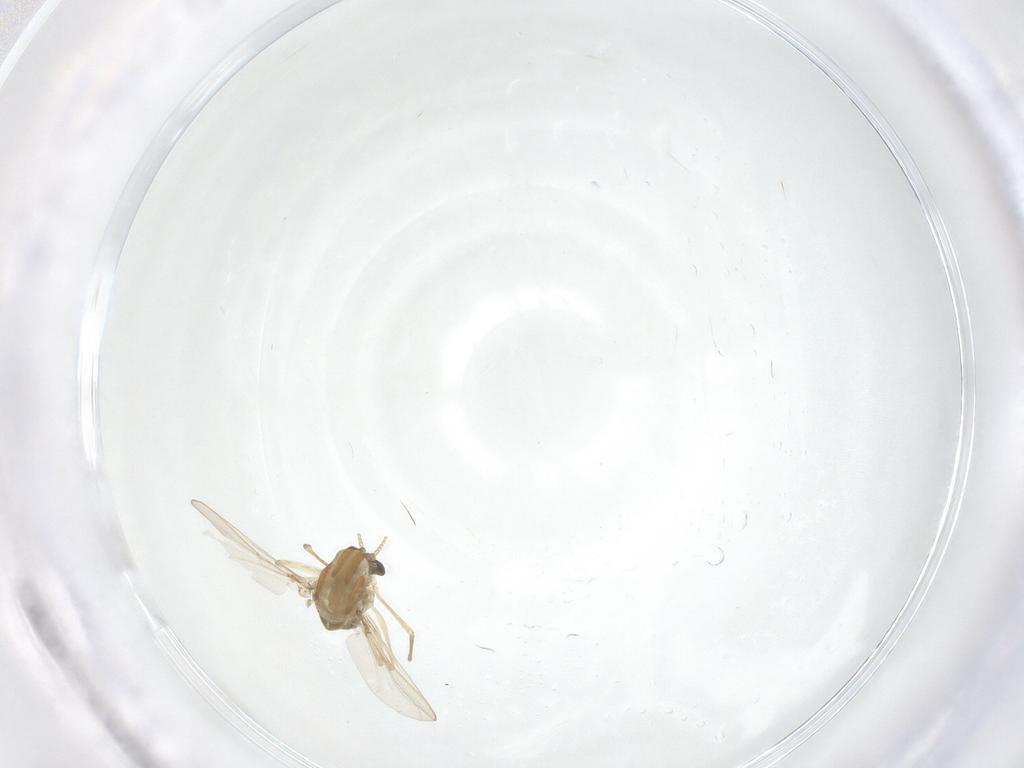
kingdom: Animalia
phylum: Arthropoda
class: Insecta
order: Diptera
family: Chironomidae
